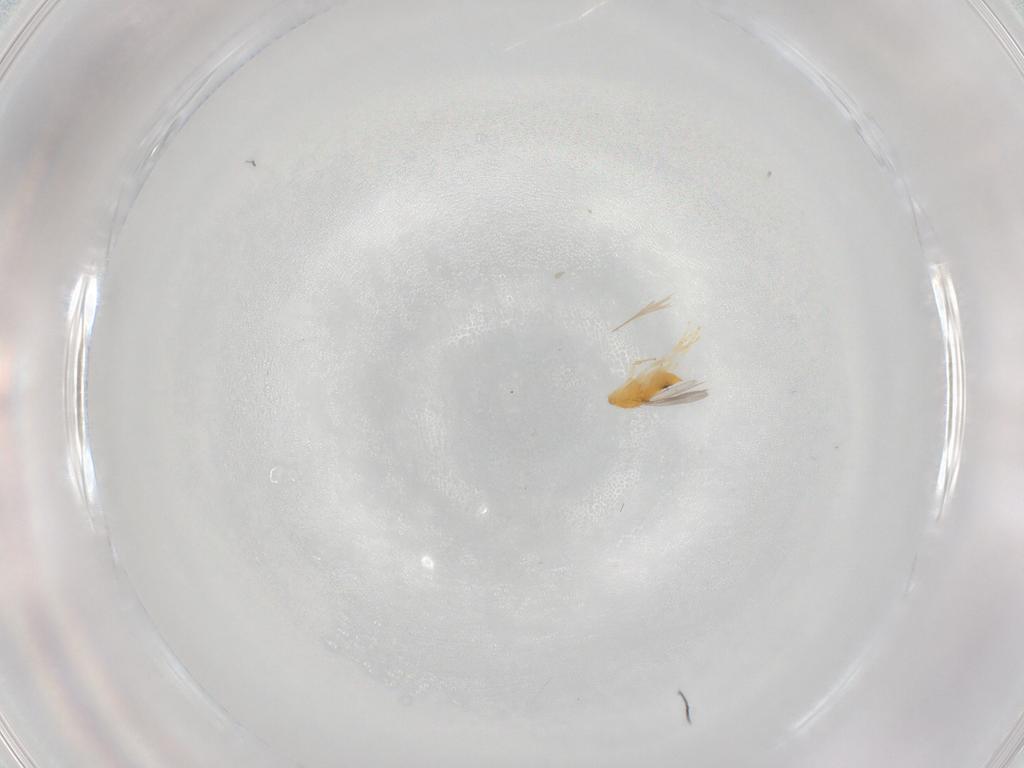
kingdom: Animalia
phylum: Arthropoda
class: Insecta
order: Hymenoptera
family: Aphelinidae
